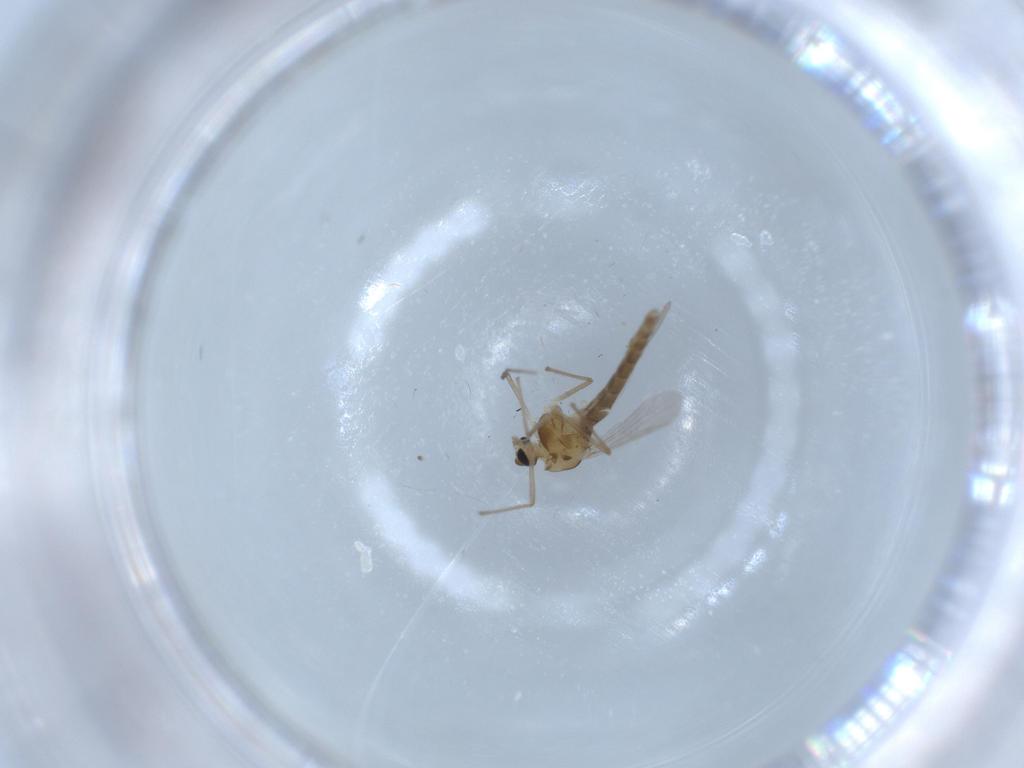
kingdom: Animalia
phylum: Arthropoda
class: Insecta
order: Diptera
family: Chironomidae
